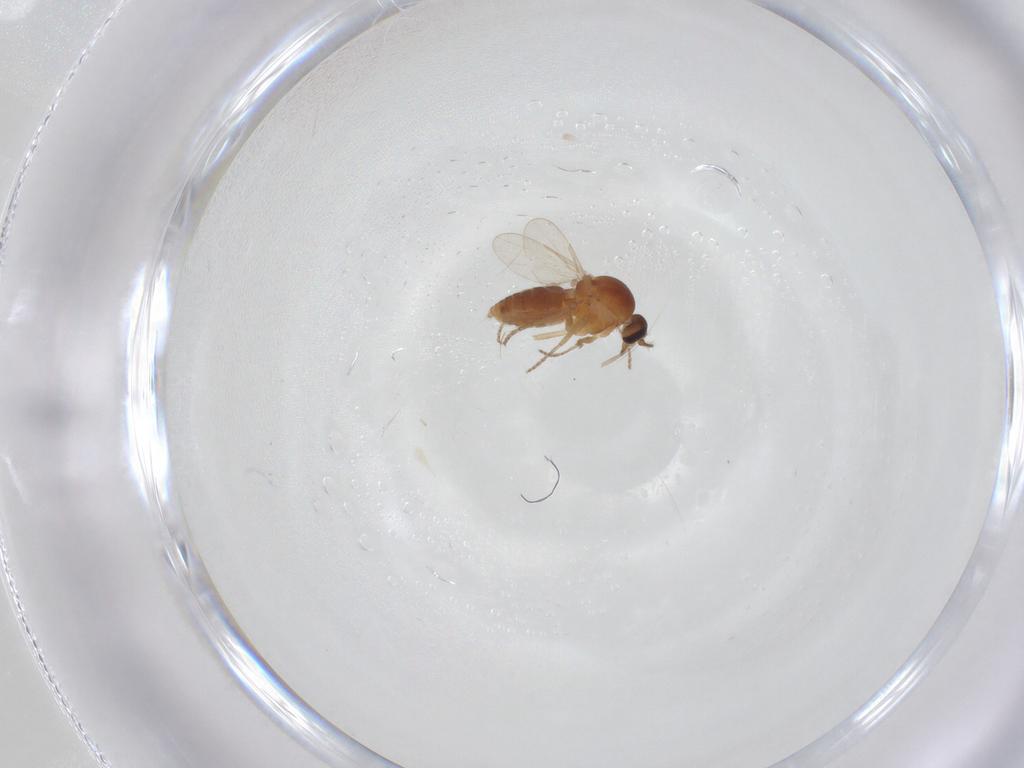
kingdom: Animalia
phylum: Arthropoda
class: Insecta
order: Diptera
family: Ceratopogonidae
